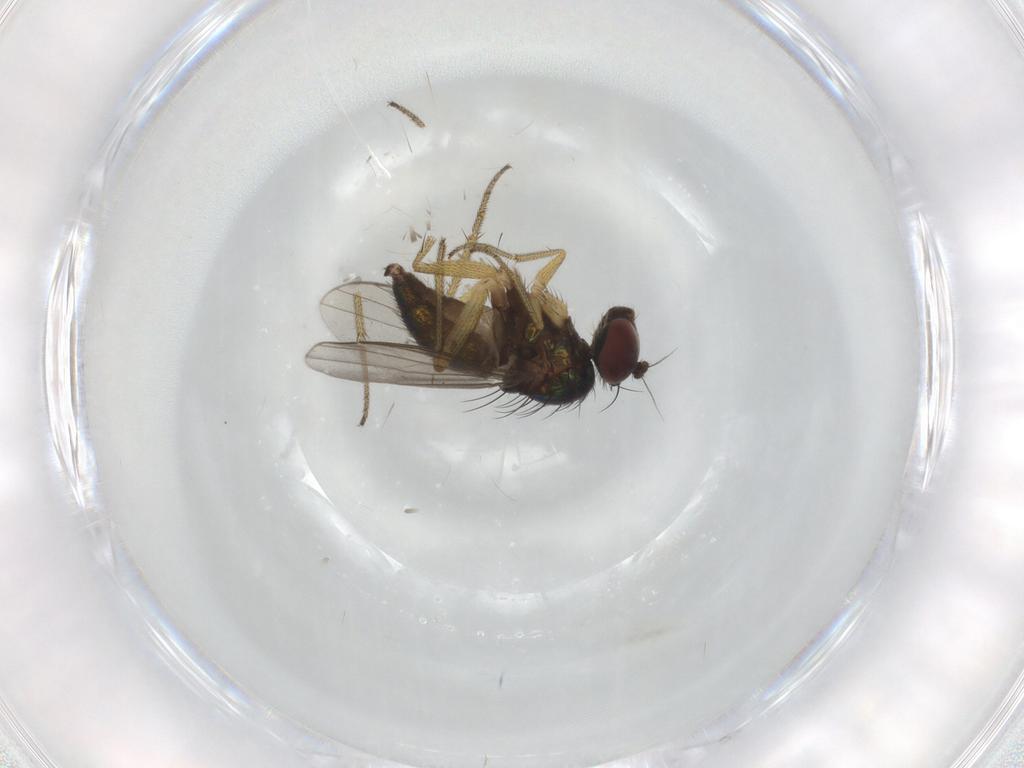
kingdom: Animalia
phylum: Arthropoda
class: Insecta
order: Diptera
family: Dolichopodidae
